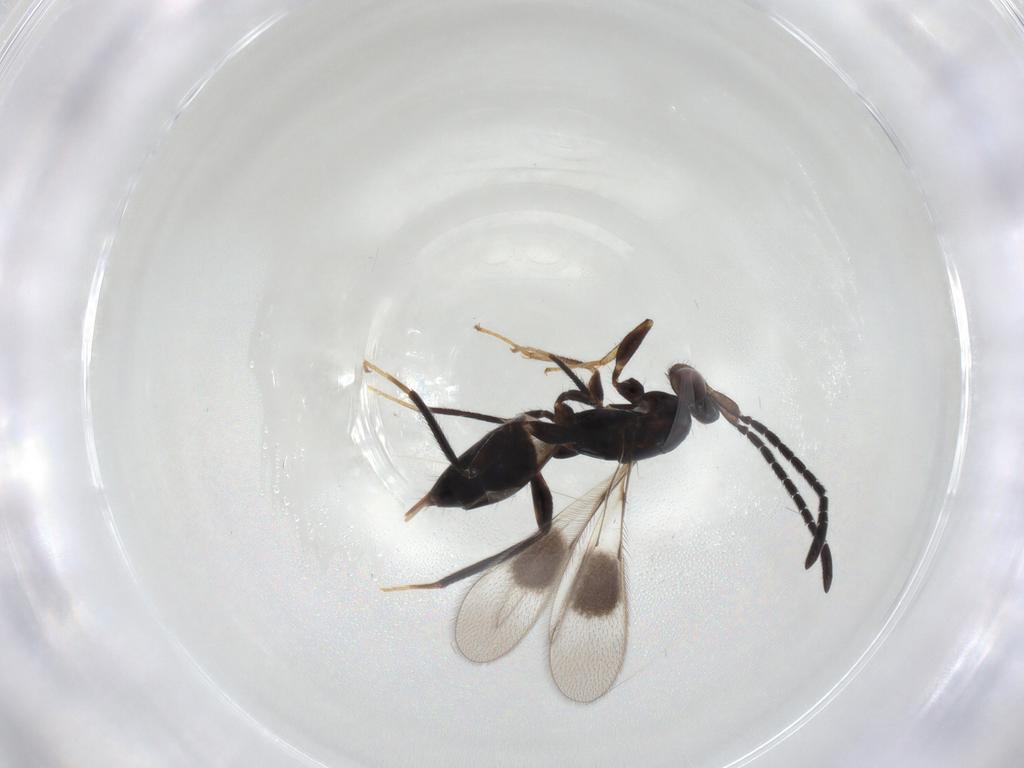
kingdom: Animalia
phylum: Arthropoda
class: Insecta
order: Hymenoptera
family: Mymaridae
